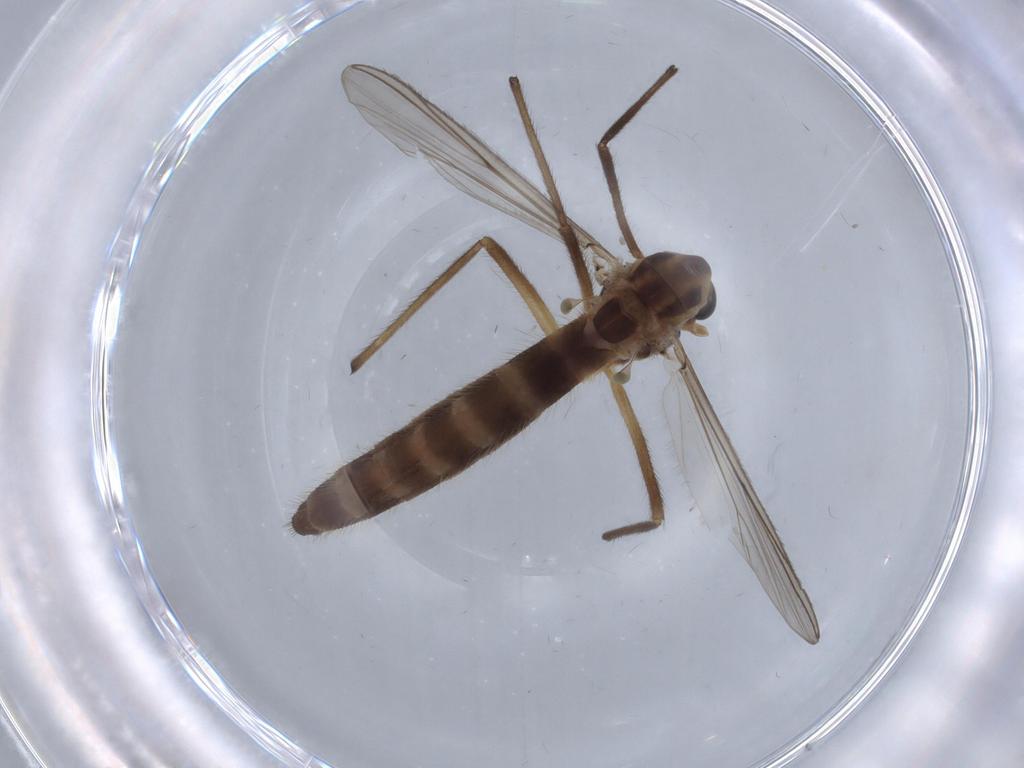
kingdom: Animalia
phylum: Arthropoda
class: Insecta
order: Diptera
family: Chironomidae
